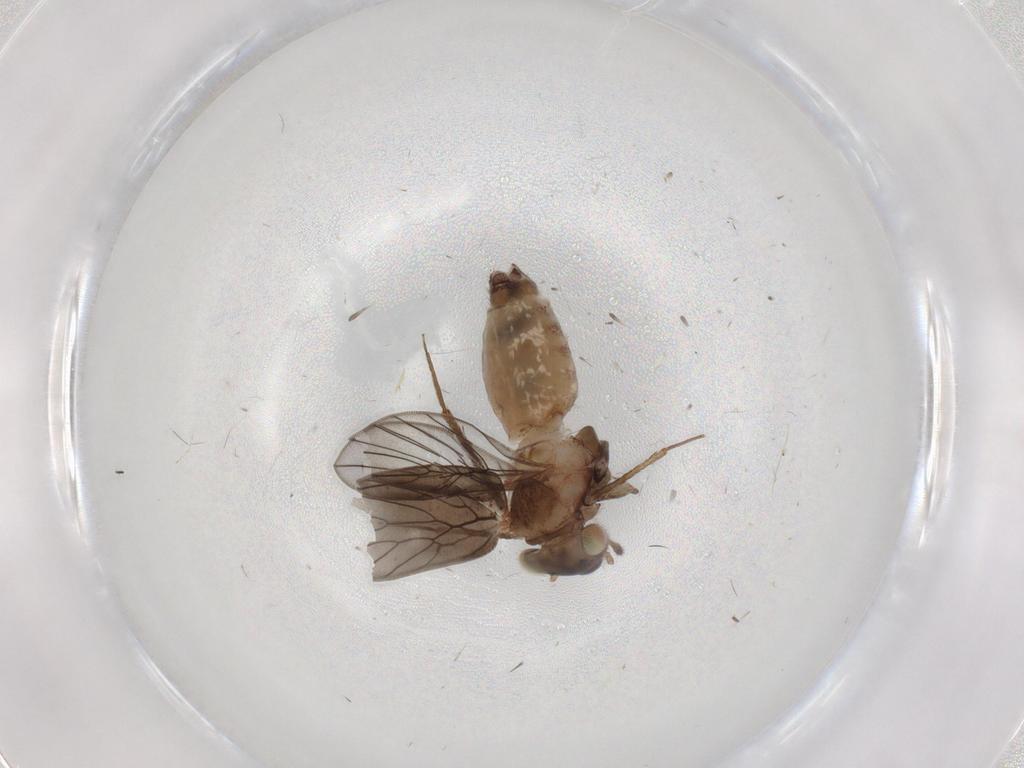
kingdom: Animalia
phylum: Arthropoda
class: Insecta
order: Psocodea
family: Lepidopsocidae
